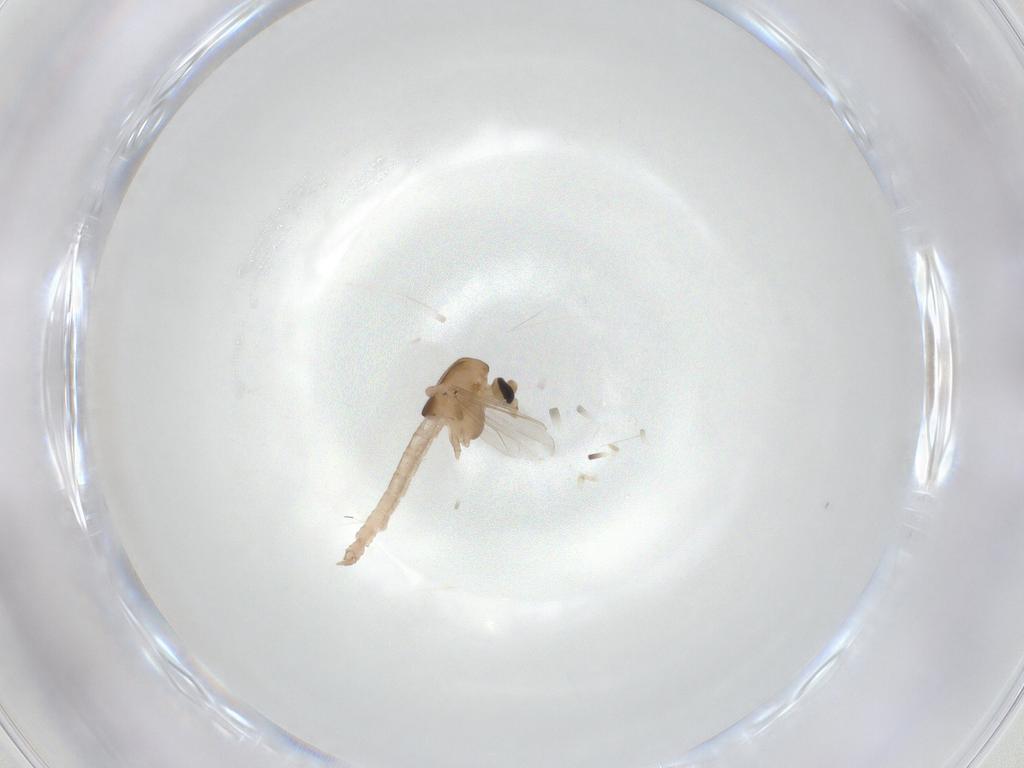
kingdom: Animalia
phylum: Arthropoda
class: Insecta
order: Diptera
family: Chironomidae
